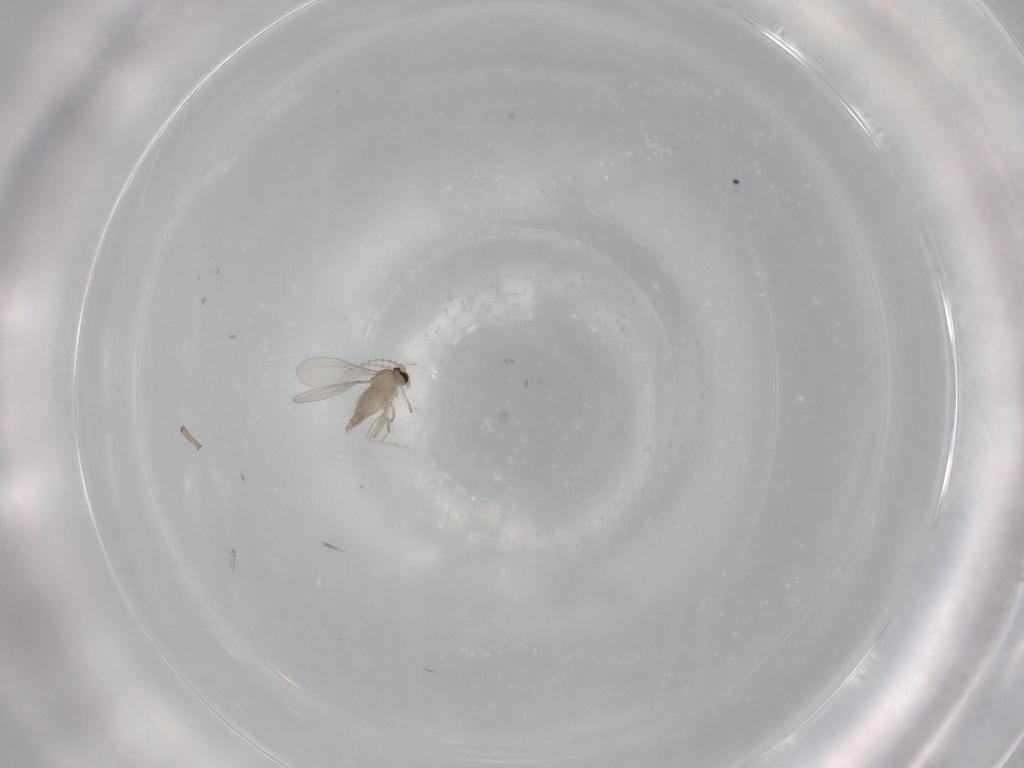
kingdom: Animalia
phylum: Arthropoda
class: Insecta
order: Diptera
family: Cecidomyiidae
